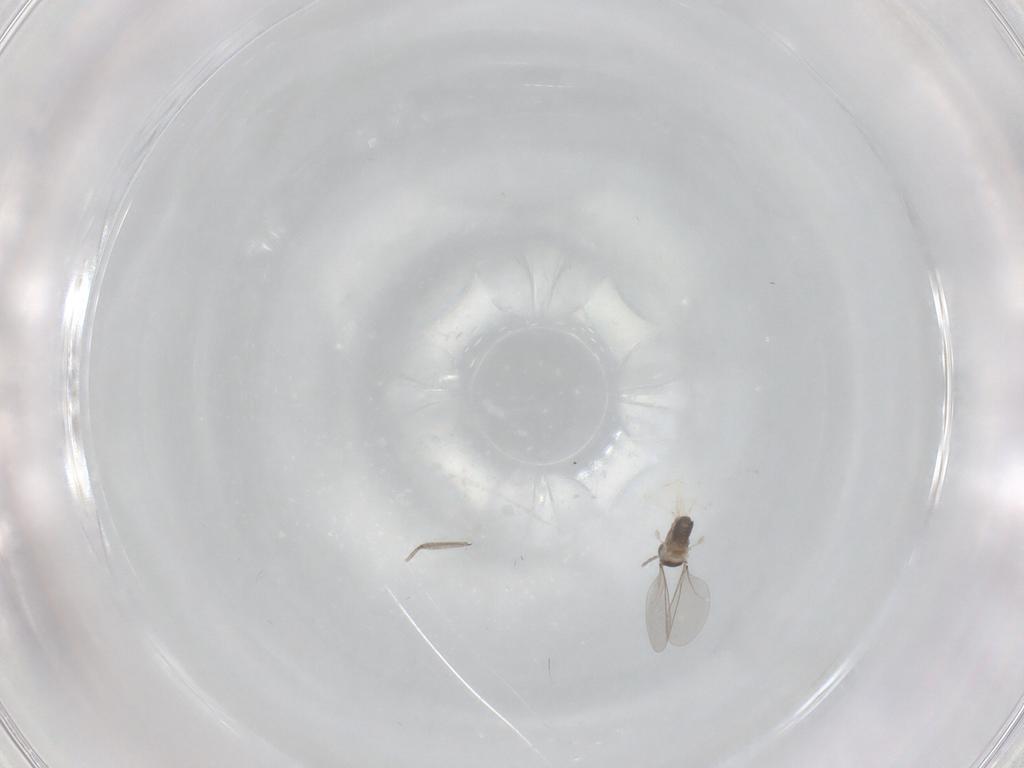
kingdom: Animalia
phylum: Arthropoda
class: Insecta
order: Diptera
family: Cecidomyiidae
